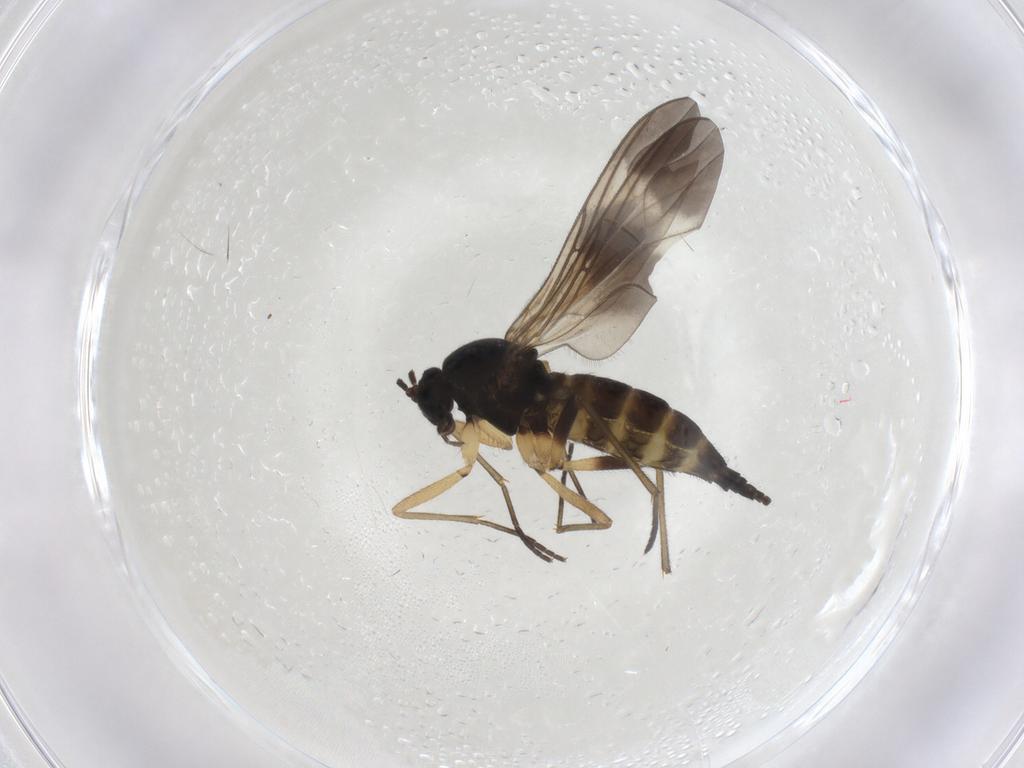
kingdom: Animalia
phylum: Arthropoda
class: Insecta
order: Diptera
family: Sciaridae
